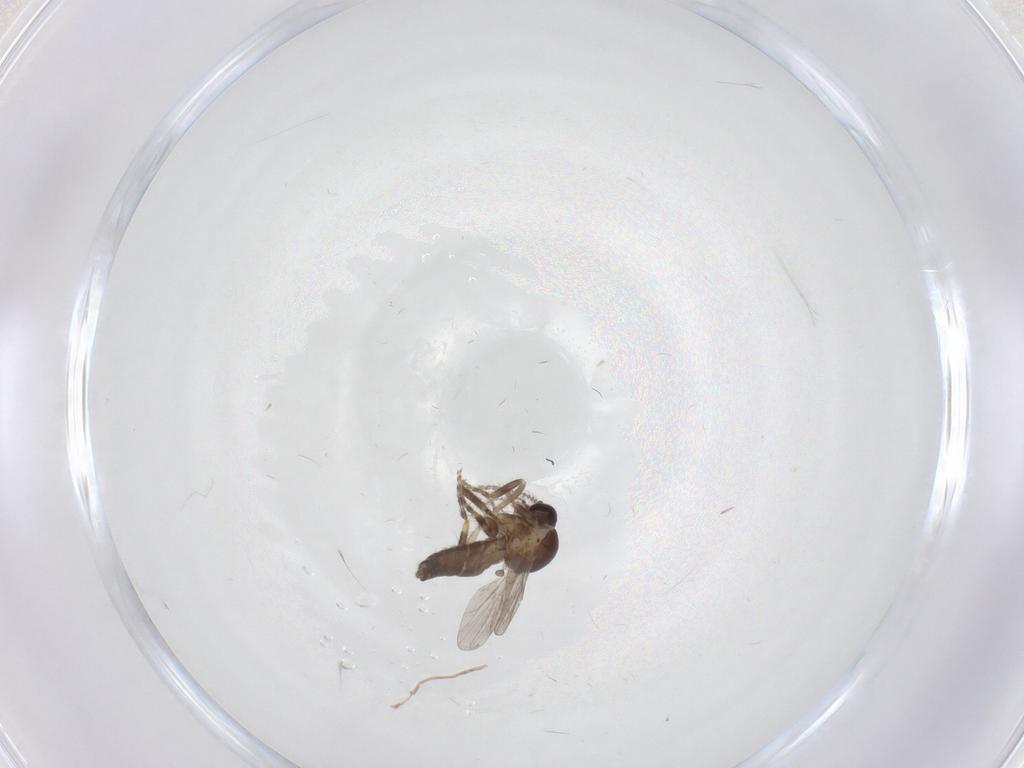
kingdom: Animalia
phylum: Arthropoda
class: Insecta
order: Diptera
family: Ceratopogonidae
